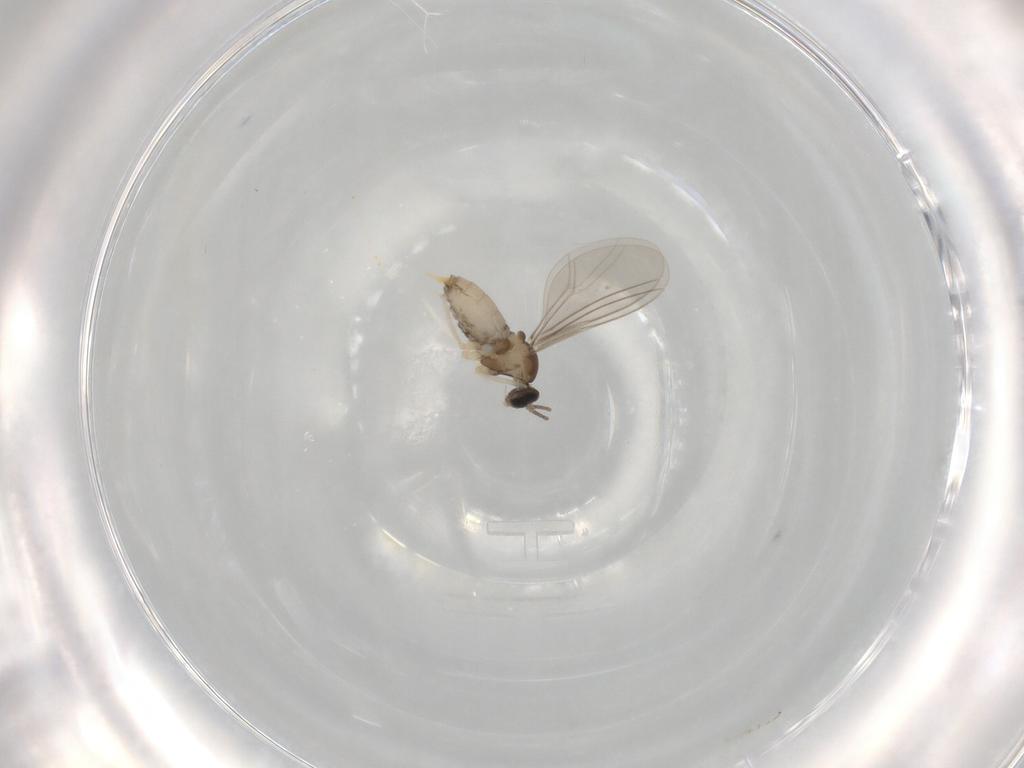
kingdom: Animalia
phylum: Arthropoda
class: Insecta
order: Diptera
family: Cecidomyiidae
